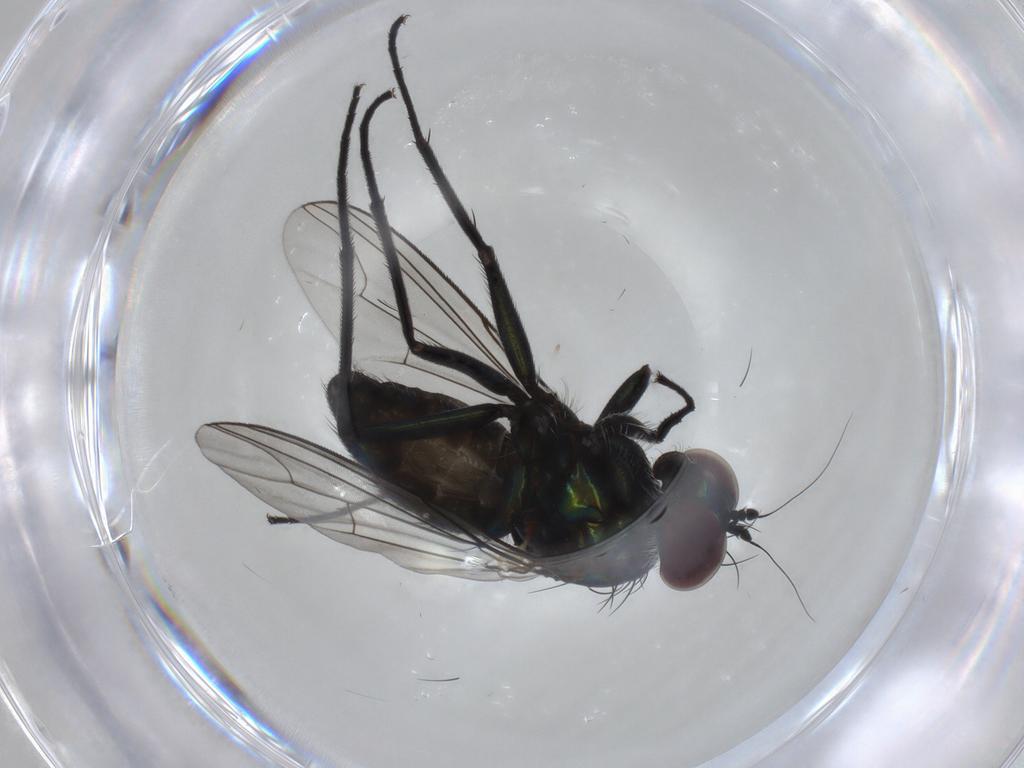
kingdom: Animalia
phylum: Arthropoda
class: Insecta
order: Diptera
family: Dolichopodidae
